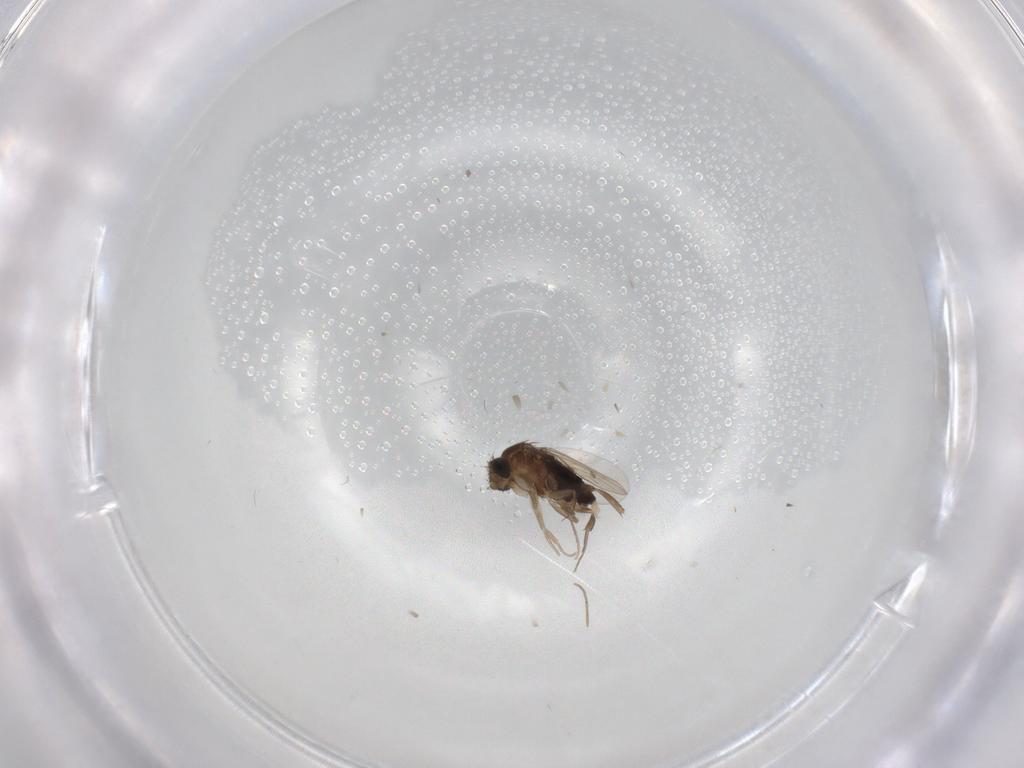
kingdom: Animalia
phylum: Arthropoda
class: Insecta
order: Diptera
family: Phoridae
